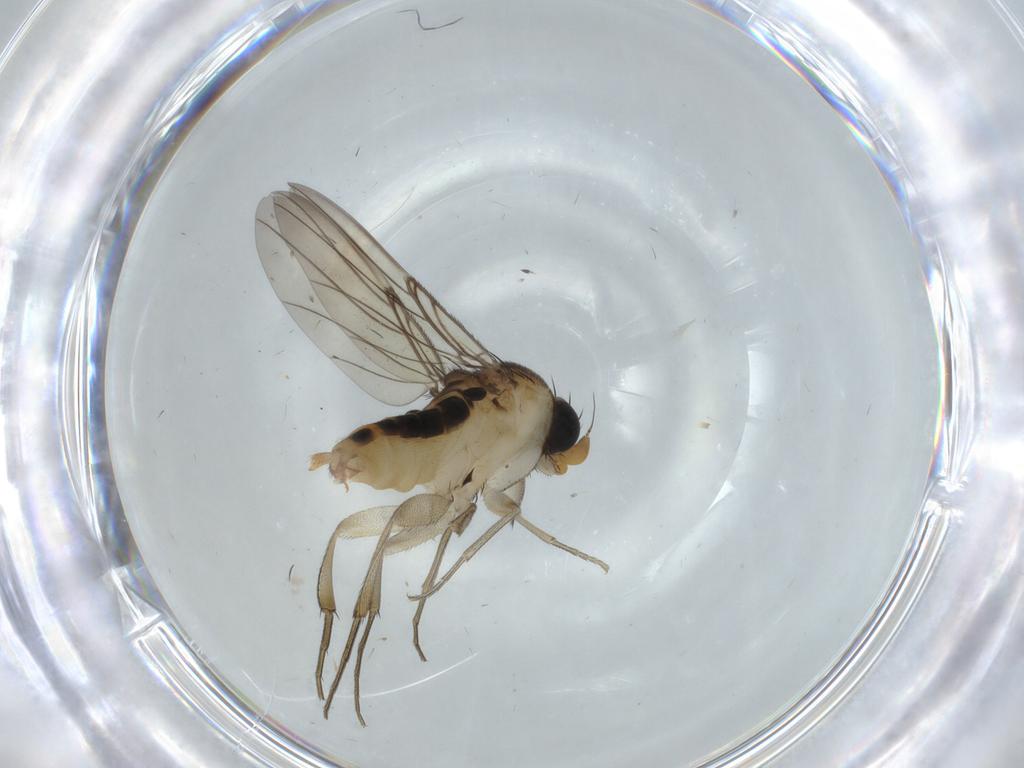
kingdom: Animalia
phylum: Arthropoda
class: Insecta
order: Diptera
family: Phoridae
